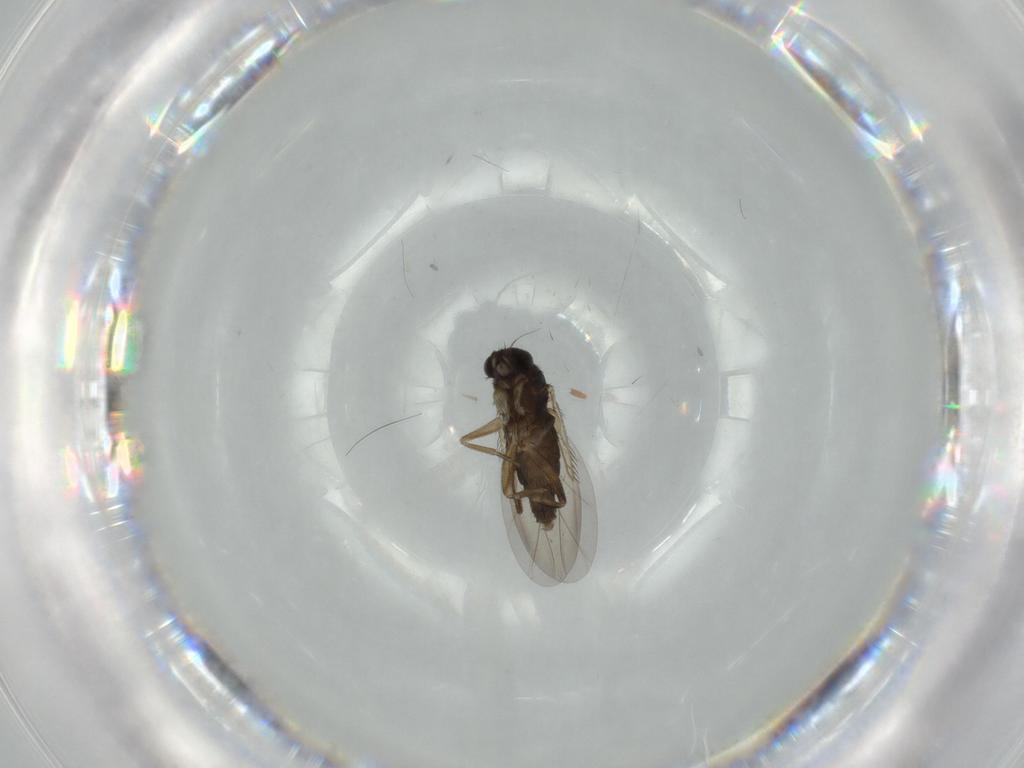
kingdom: Animalia
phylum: Arthropoda
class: Insecta
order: Diptera
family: Phoridae
